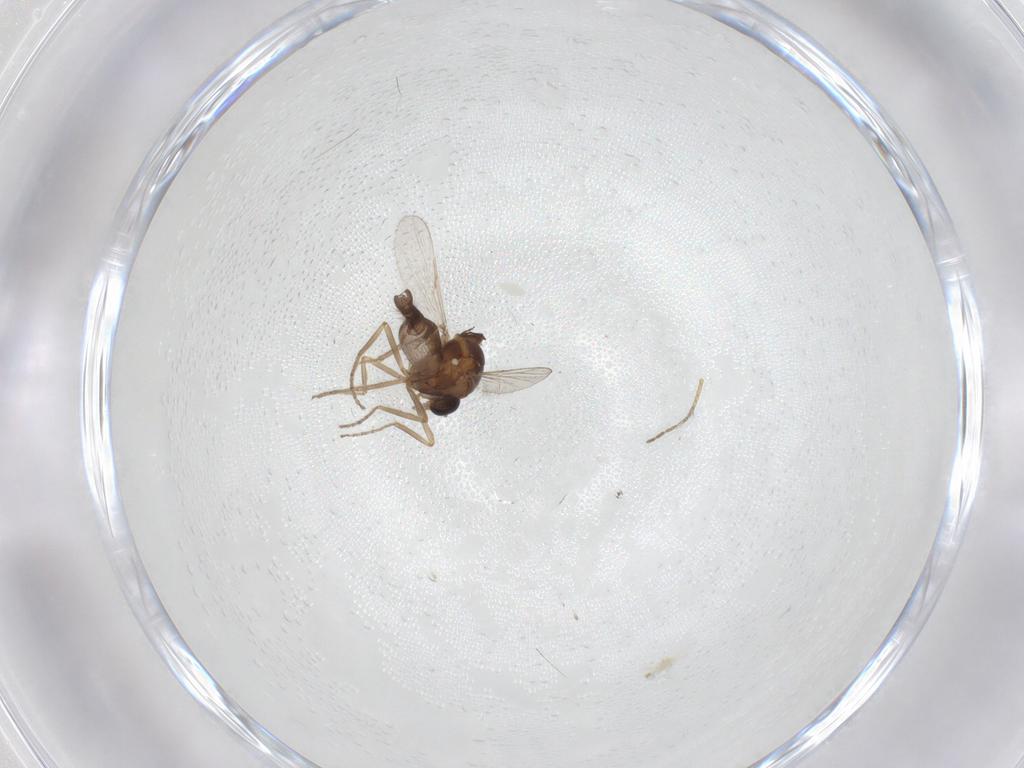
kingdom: Animalia
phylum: Arthropoda
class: Insecta
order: Diptera
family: Ceratopogonidae
